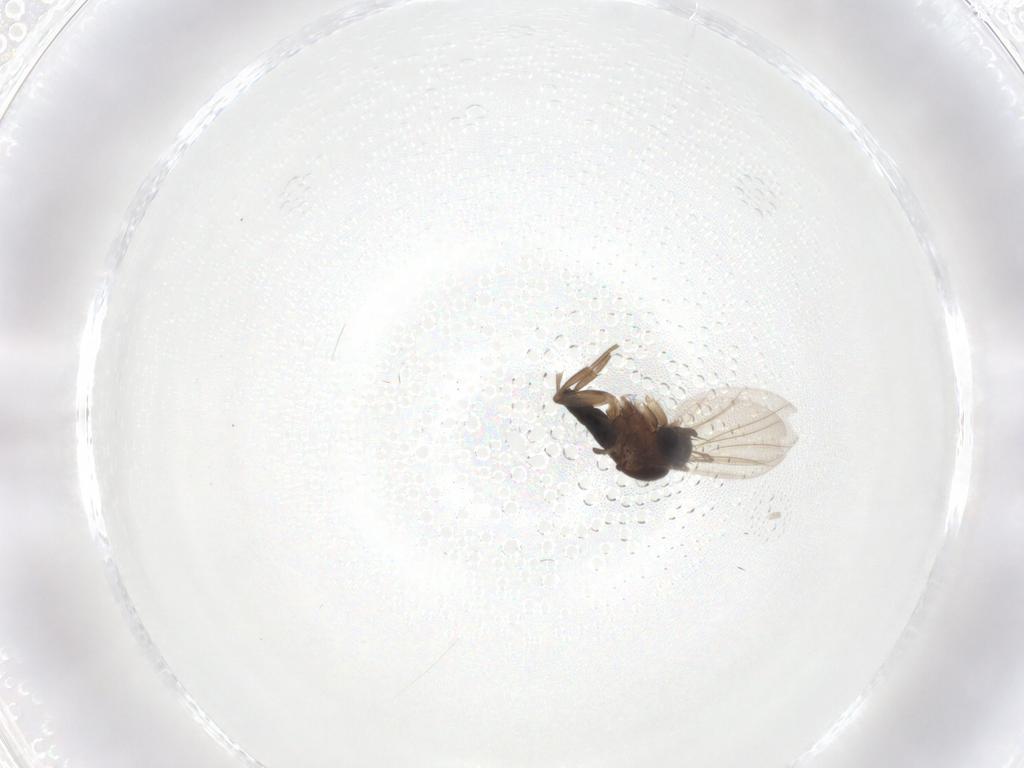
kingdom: Animalia
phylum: Arthropoda
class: Insecta
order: Diptera
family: Phoridae
